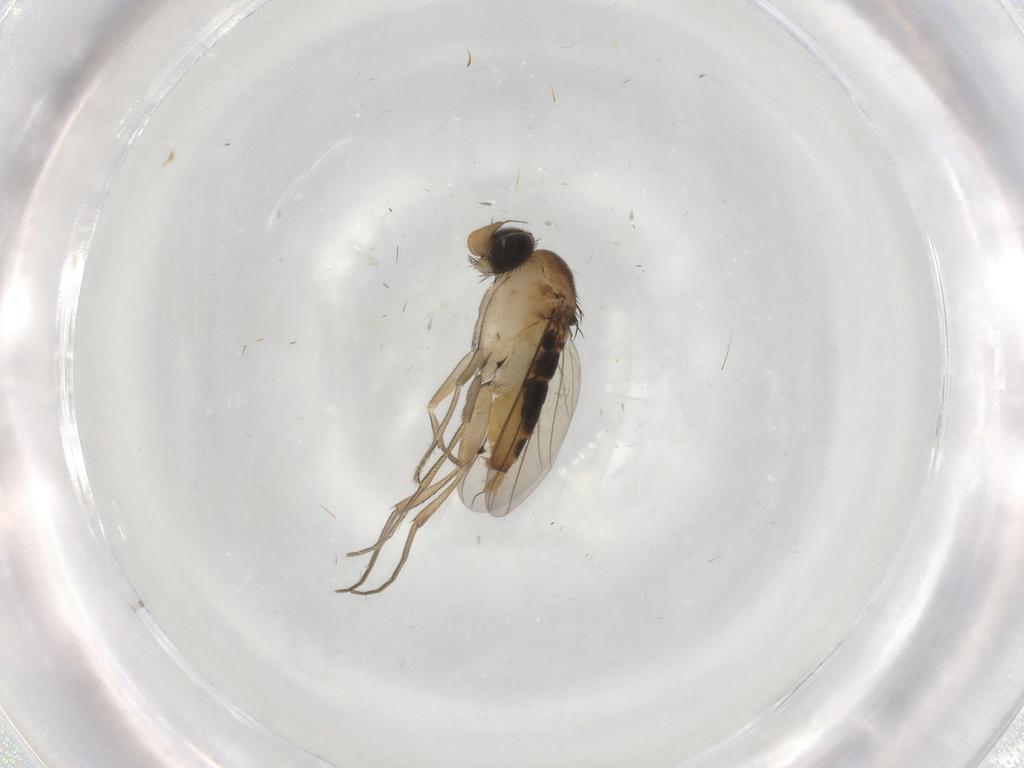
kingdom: Animalia
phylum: Arthropoda
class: Insecta
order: Diptera
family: Phoridae
